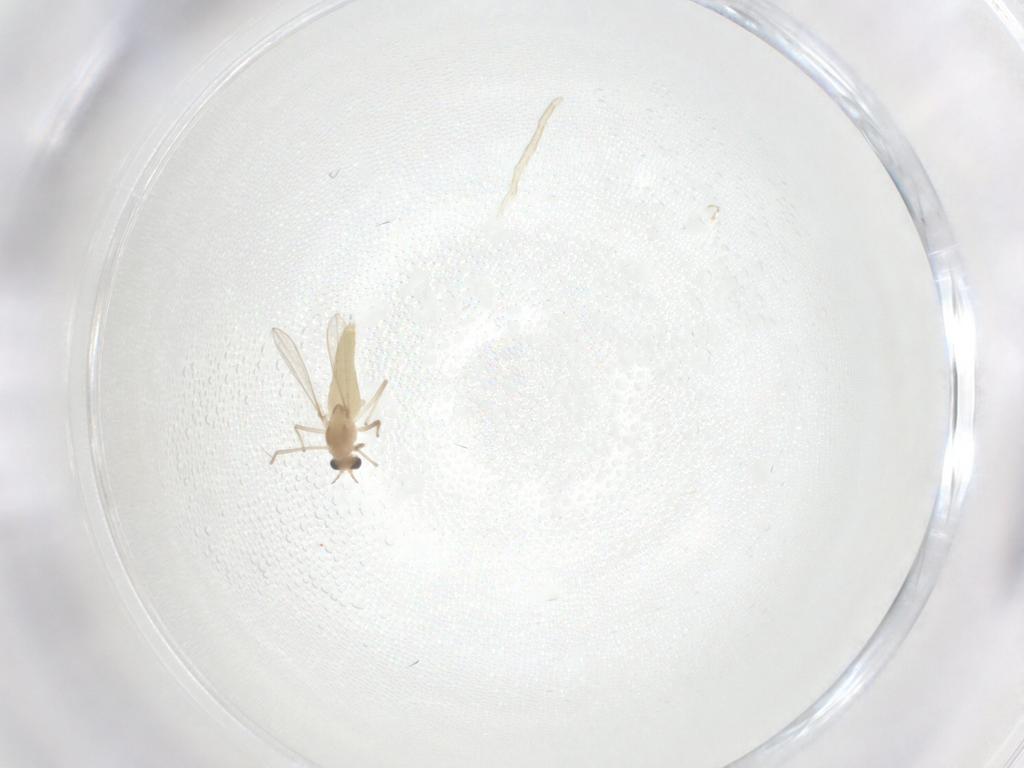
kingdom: Animalia
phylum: Arthropoda
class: Insecta
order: Diptera
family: Chironomidae
